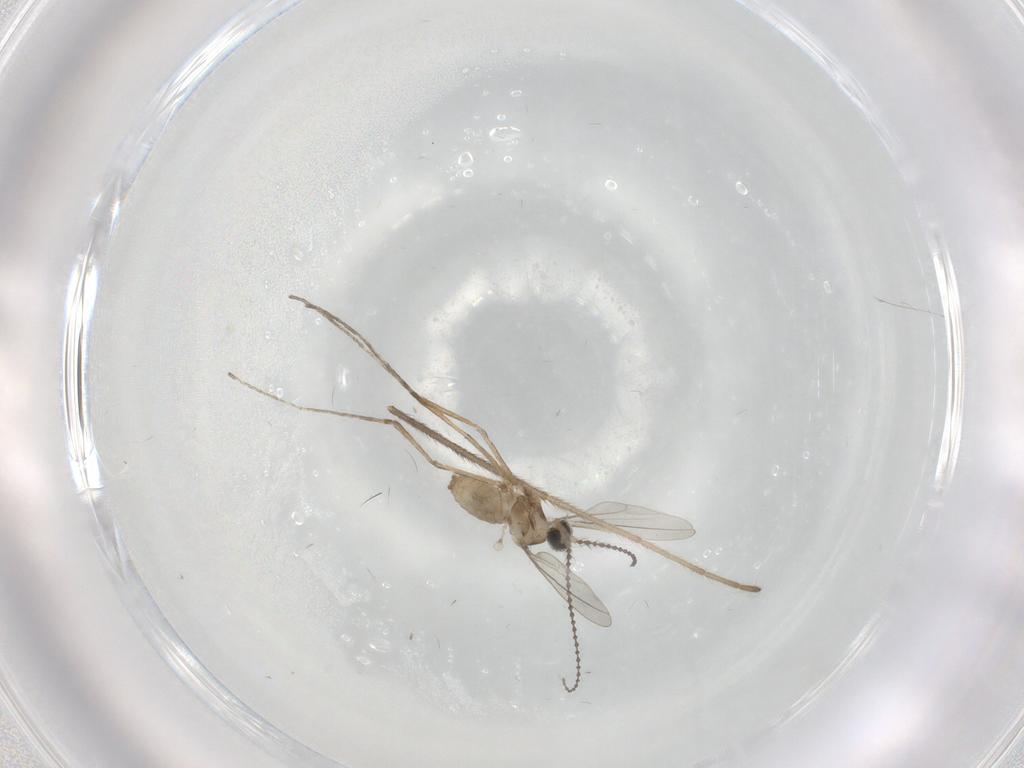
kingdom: Animalia
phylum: Arthropoda
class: Insecta
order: Diptera
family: Cecidomyiidae
